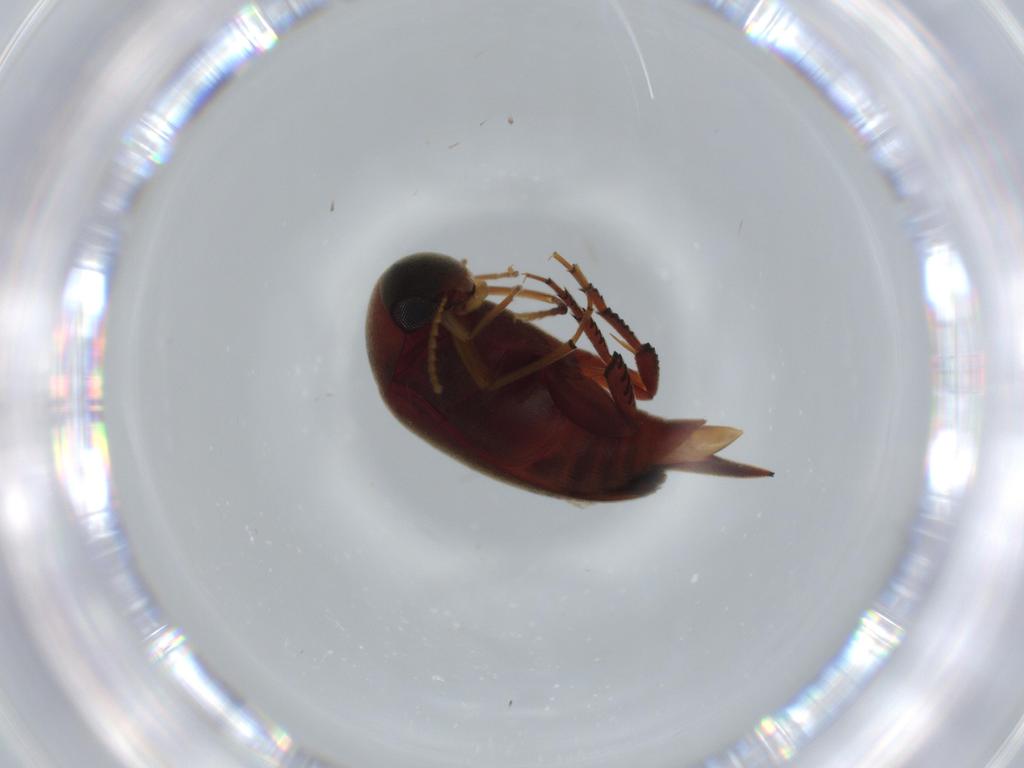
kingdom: Animalia
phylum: Arthropoda
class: Insecta
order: Coleoptera
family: Mordellidae
